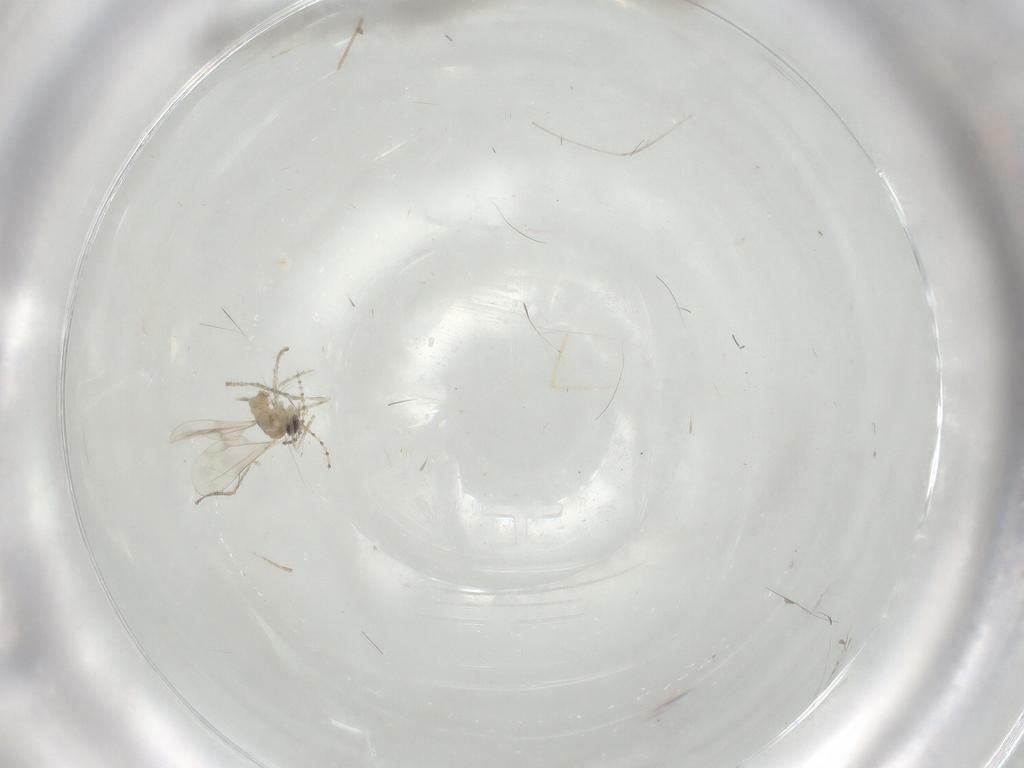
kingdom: Animalia
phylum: Arthropoda
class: Insecta
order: Diptera
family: Cecidomyiidae
